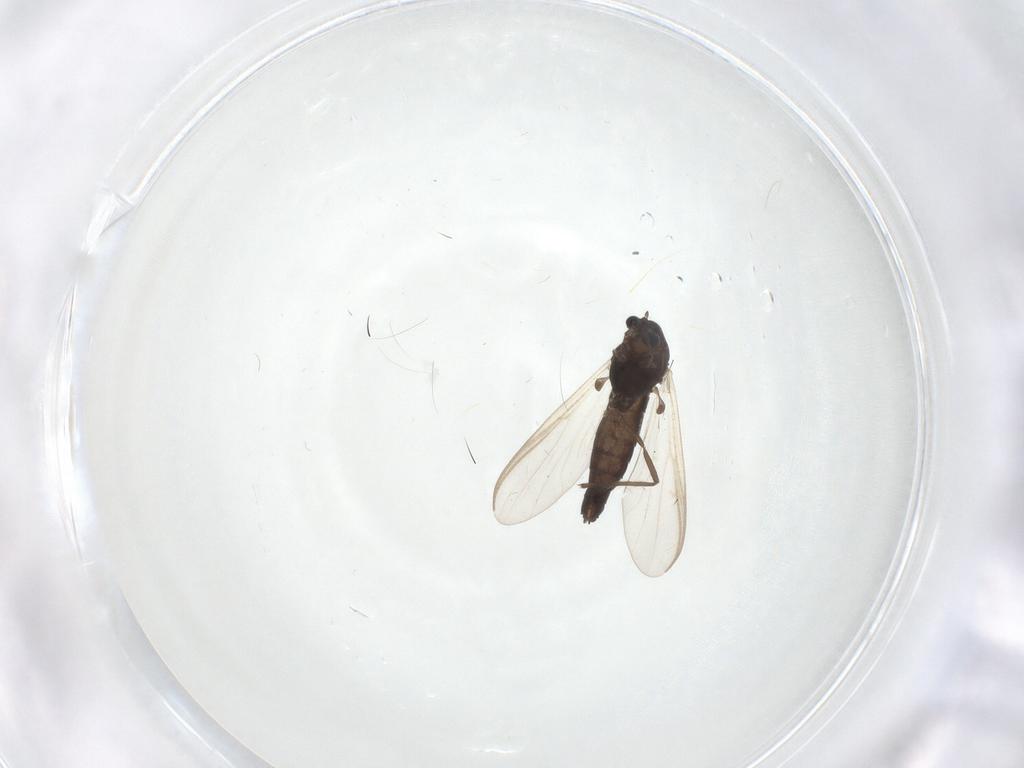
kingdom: Animalia
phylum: Arthropoda
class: Insecta
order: Diptera
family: Chironomidae
